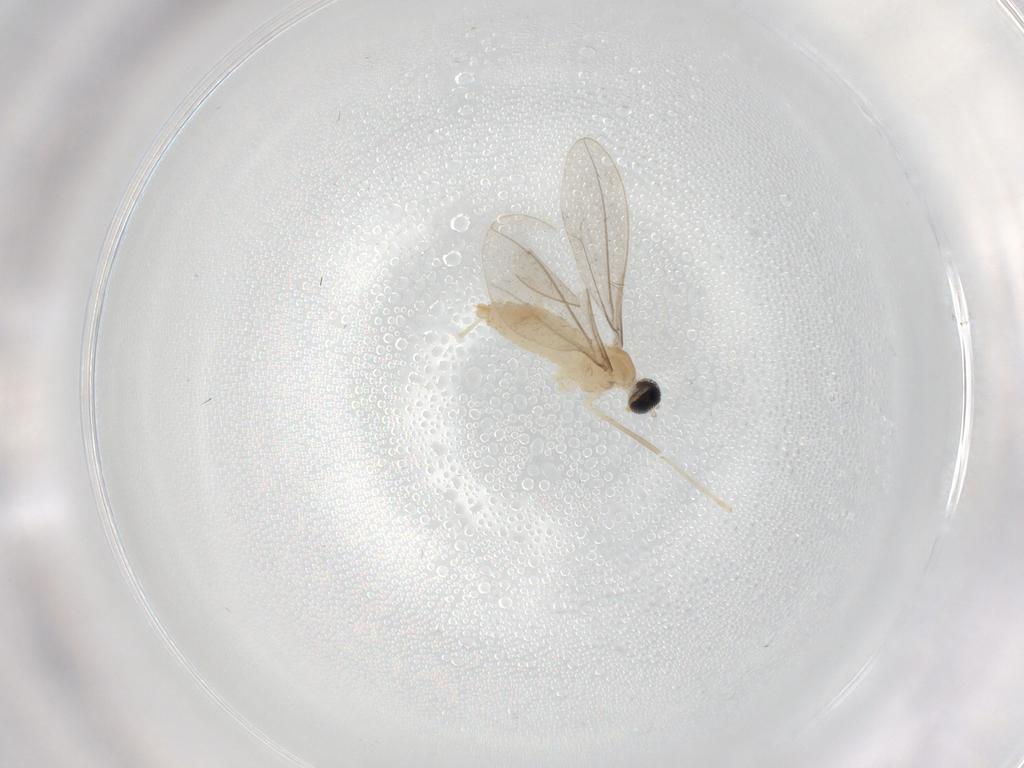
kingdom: Animalia
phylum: Arthropoda
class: Insecta
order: Diptera
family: Cecidomyiidae
